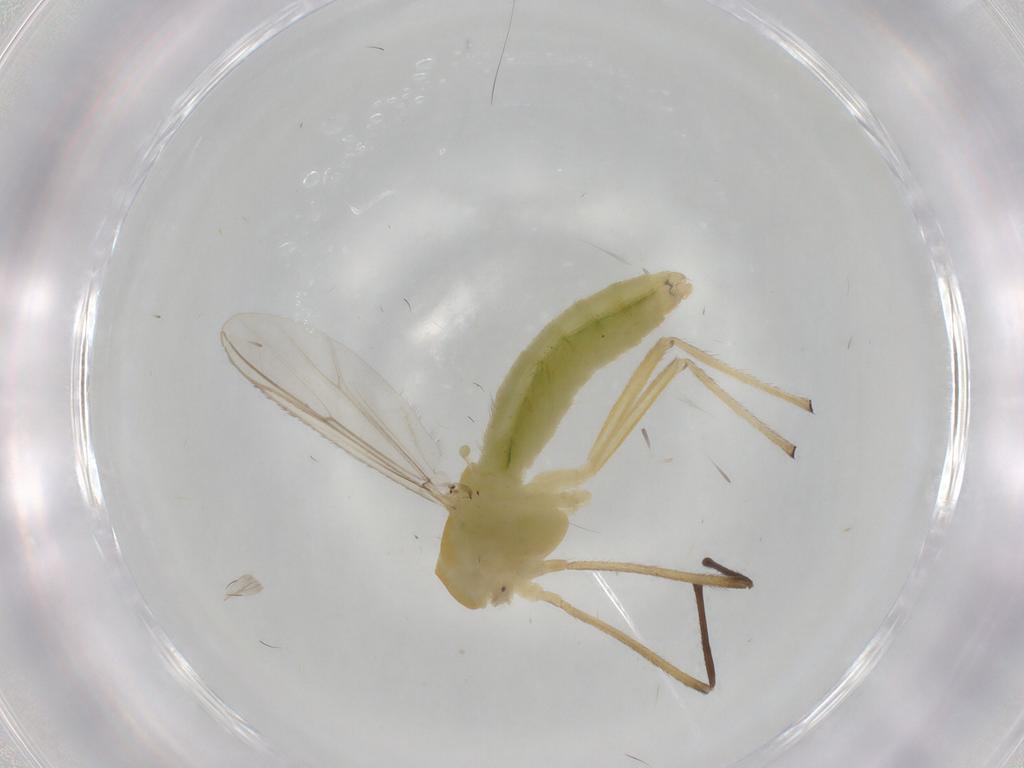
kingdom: Animalia
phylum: Arthropoda
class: Insecta
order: Diptera
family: Chironomidae
